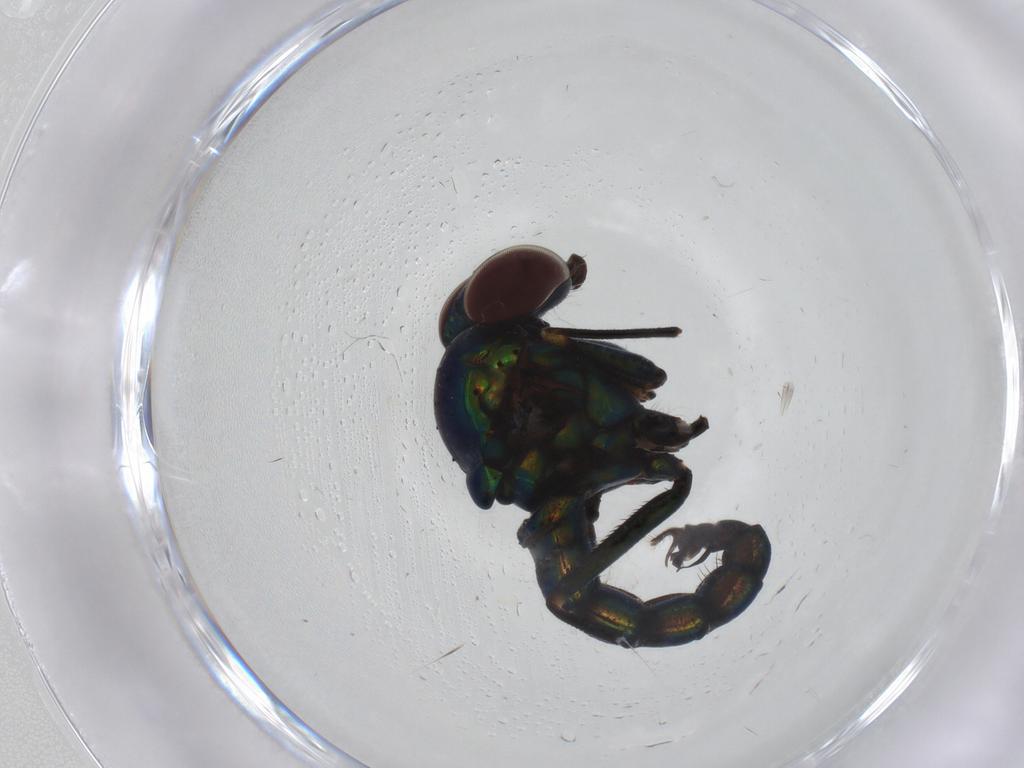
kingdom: Animalia
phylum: Arthropoda
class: Insecta
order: Diptera
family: Dolichopodidae
